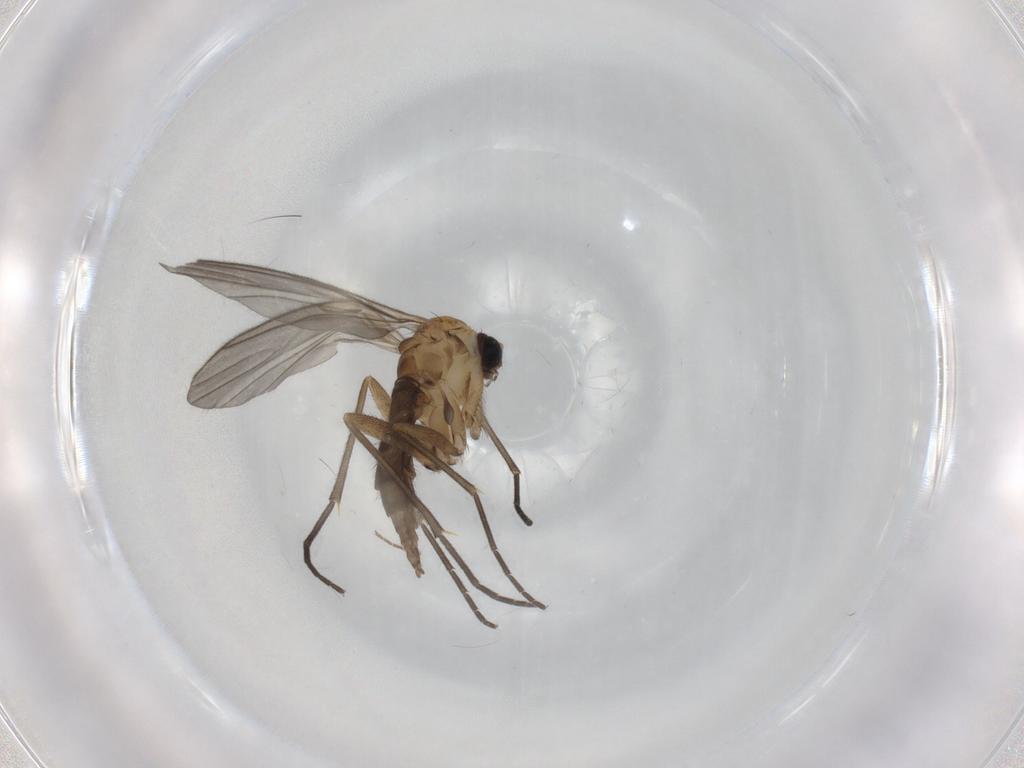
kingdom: Animalia
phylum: Arthropoda
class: Insecta
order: Diptera
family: Sciaridae
